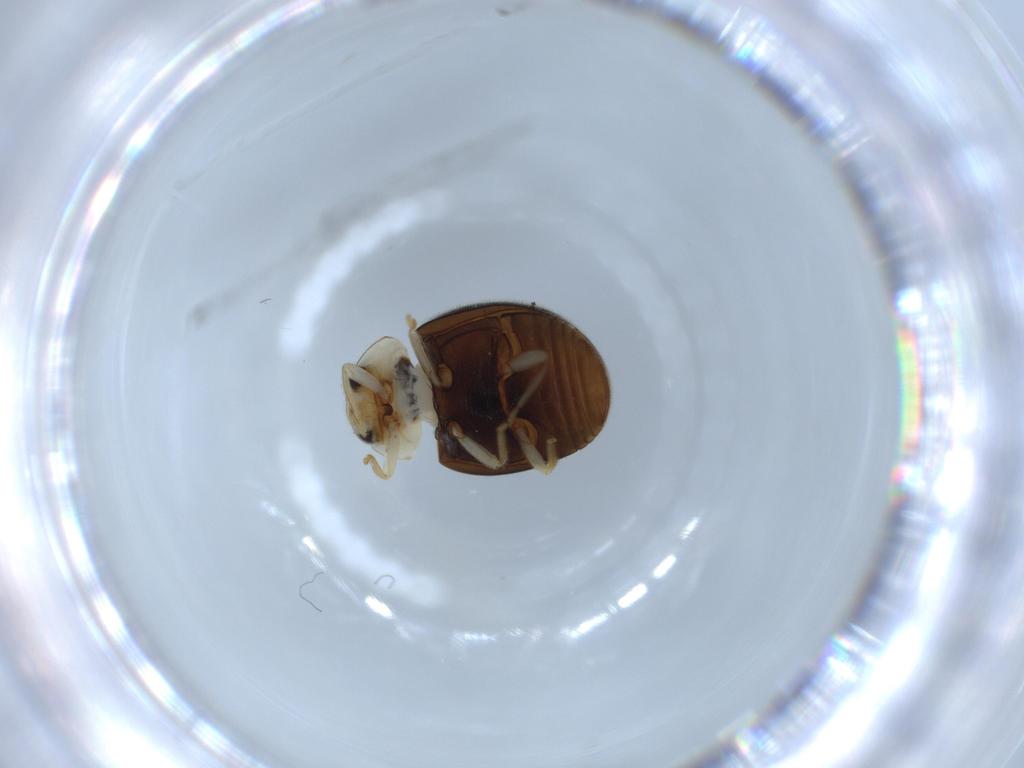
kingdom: Animalia
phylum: Arthropoda
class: Insecta
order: Coleoptera
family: Coccinellidae
